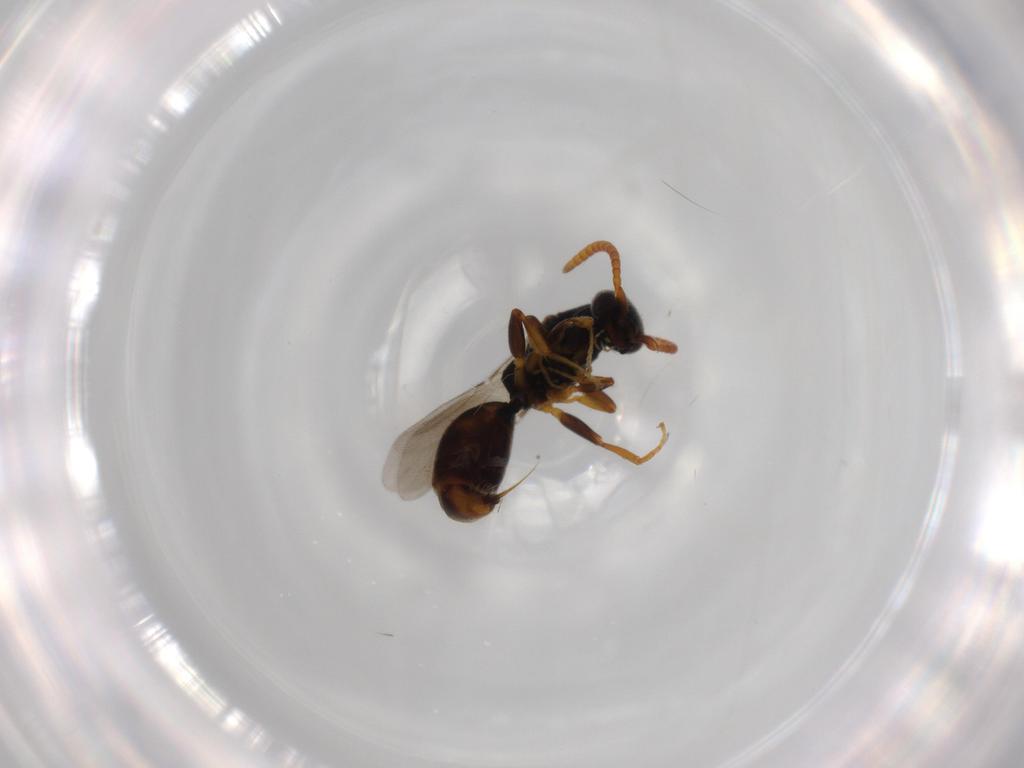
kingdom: Animalia
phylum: Arthropoda
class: Insecta
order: Hymenoptera
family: Bethylidae
